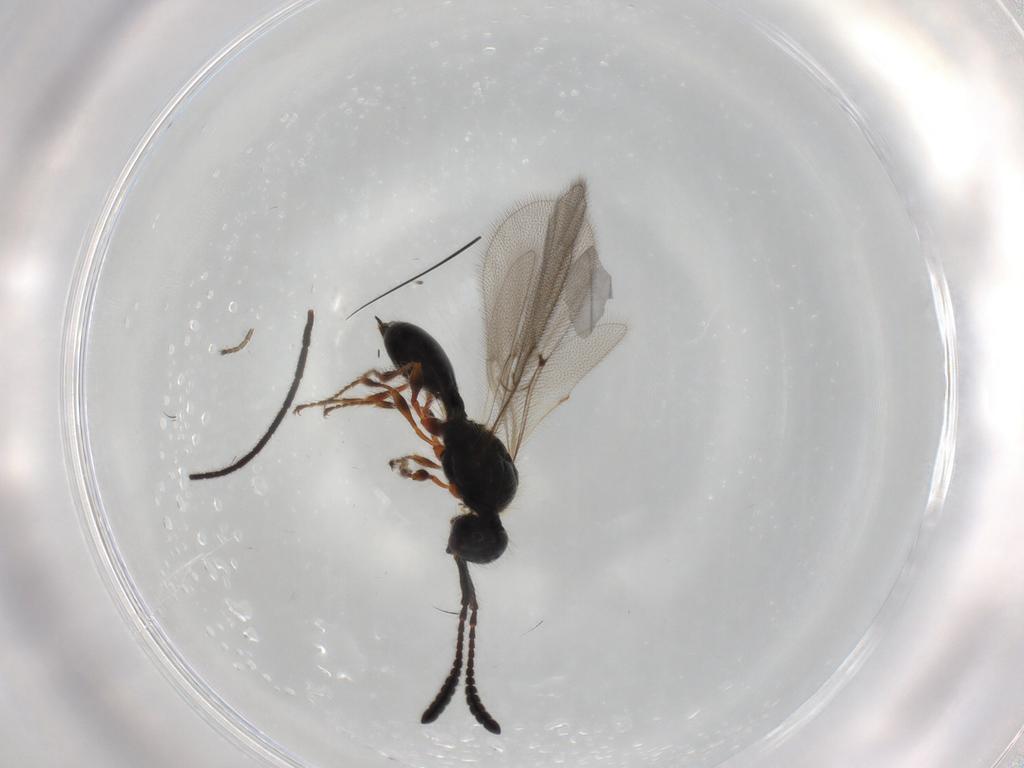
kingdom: Animalia
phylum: Arthropoda
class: Insecta
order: Hymenoptera
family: Diapriidae
